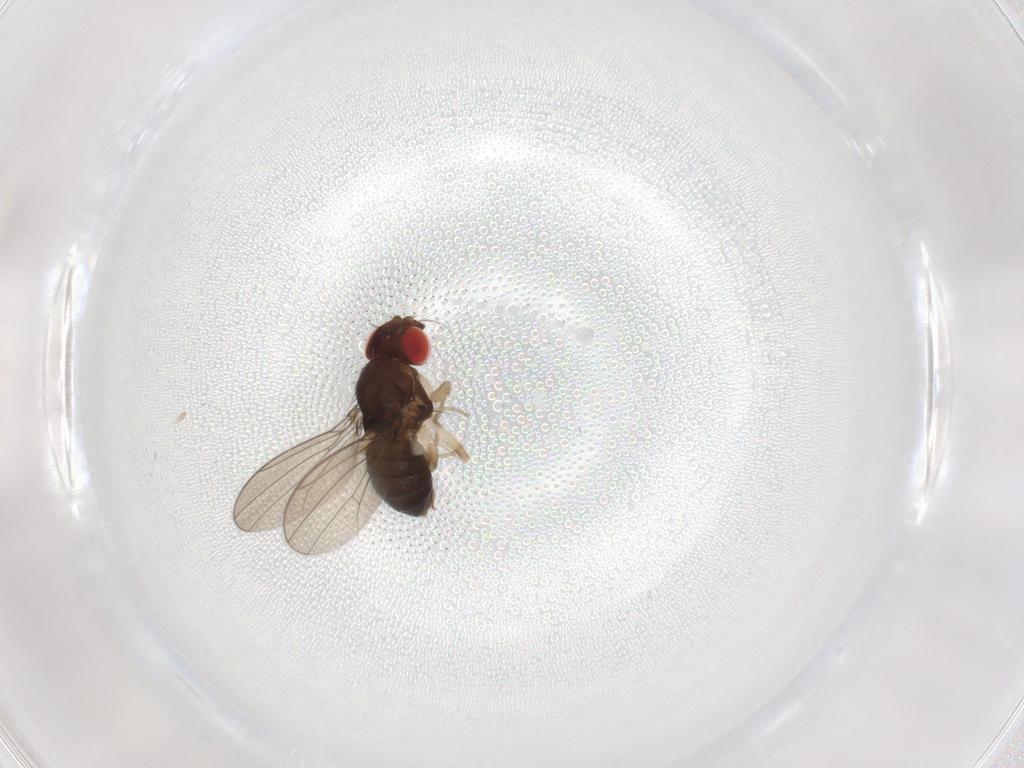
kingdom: Animalia
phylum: Arthropoda
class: Insecta
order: Diptera
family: Drosophilidae
